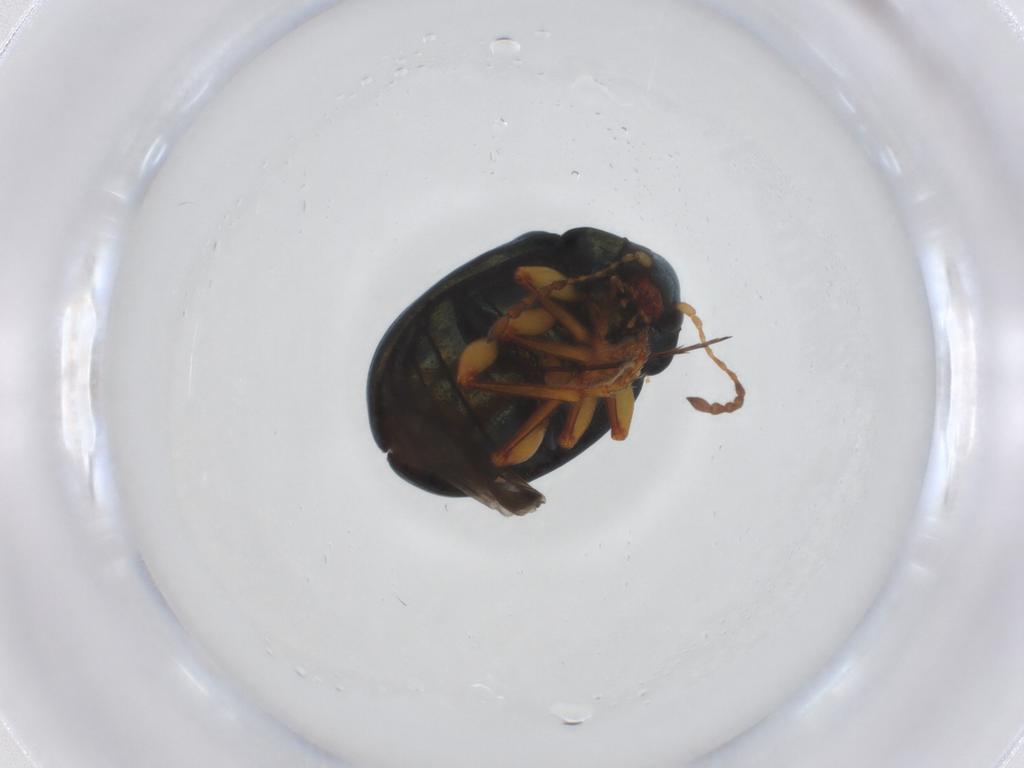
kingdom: Animalia
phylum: Arthropoda
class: Insecta
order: Coleoptera
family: Chrysomelidae
